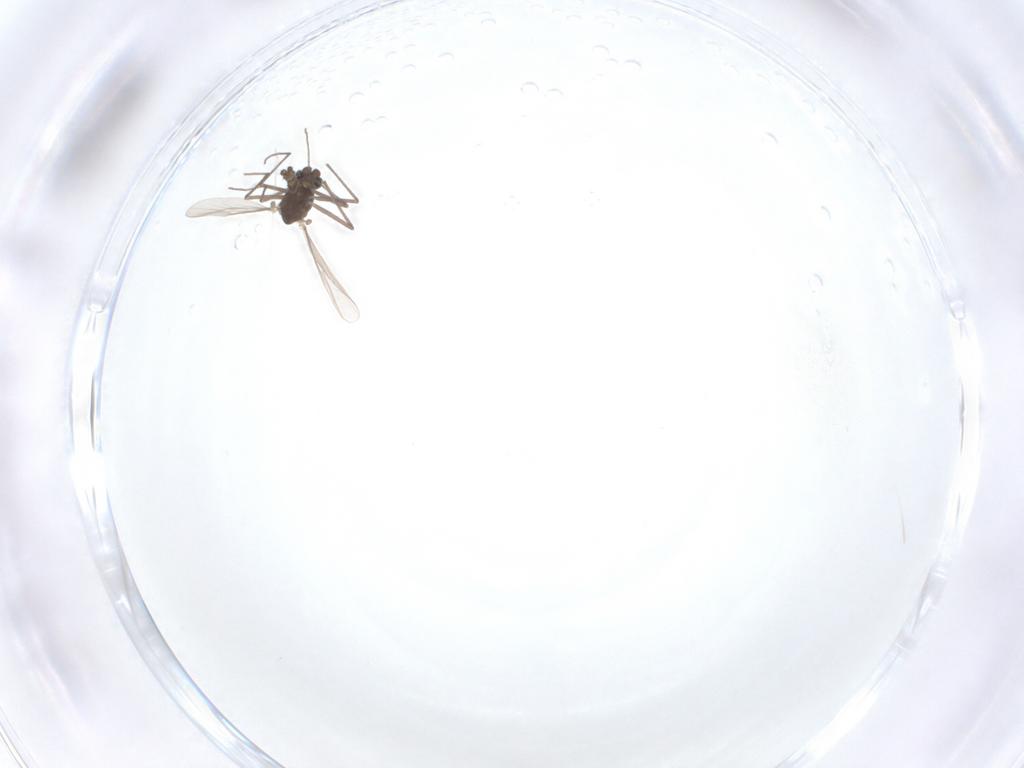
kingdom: Animalia
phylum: Arthropoda
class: Insecta
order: Diptera
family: Chironomidae
